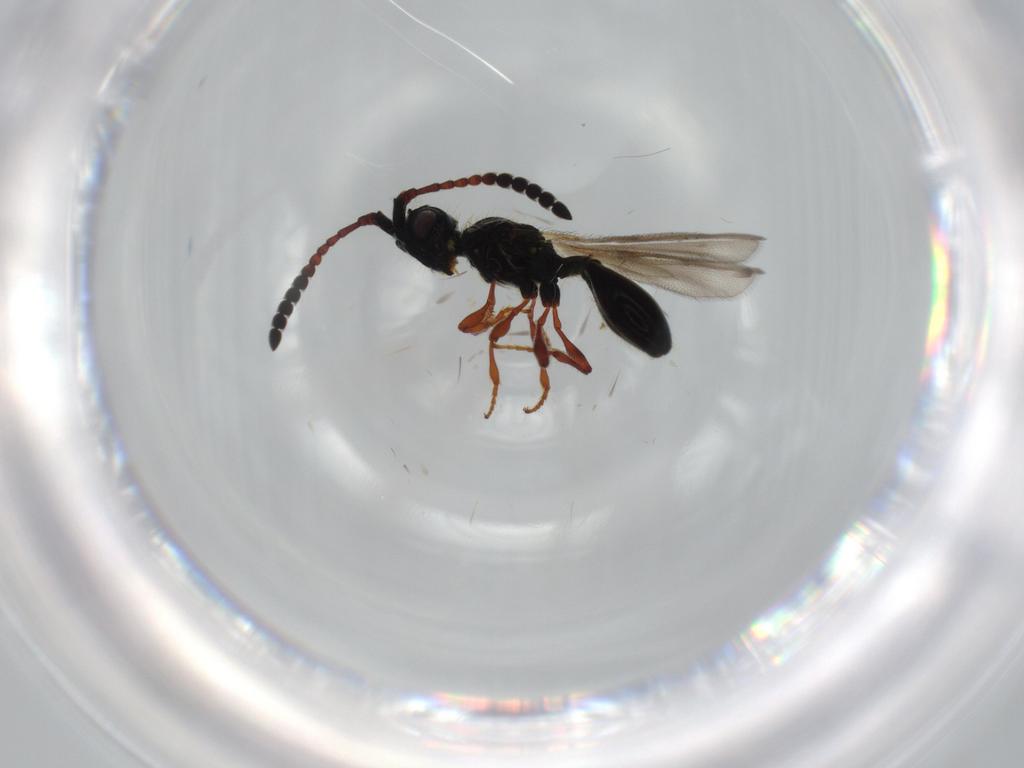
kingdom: Animalia
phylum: Arthropoda
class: Insecta
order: Hymenoptera
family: Diapriidae
